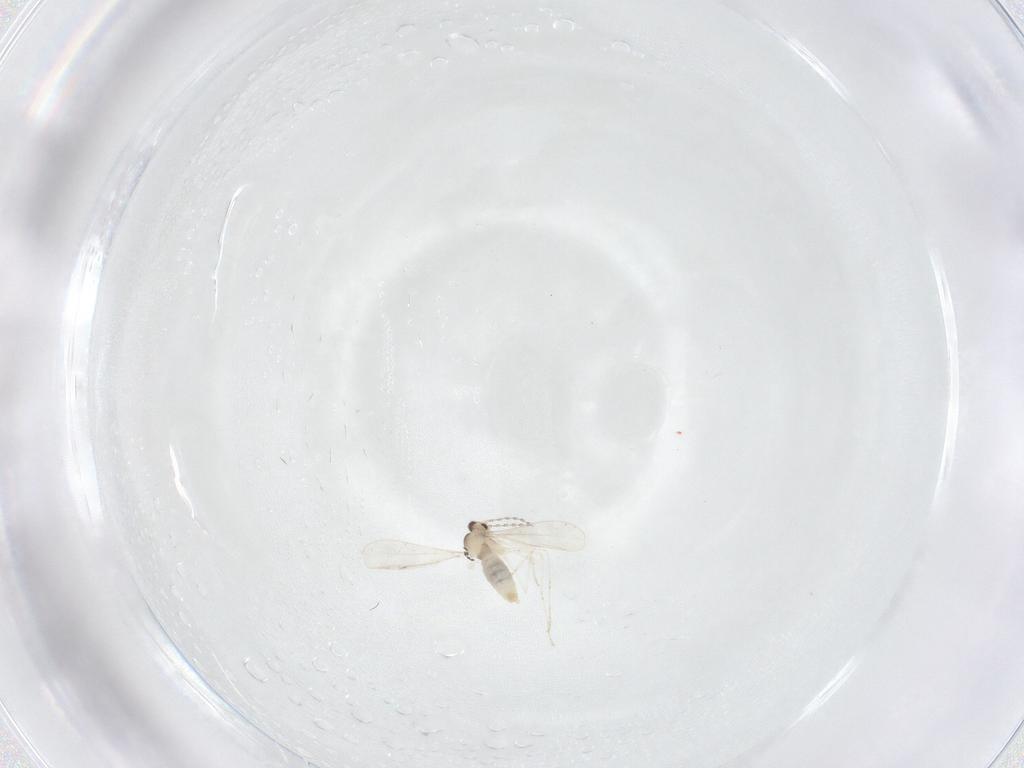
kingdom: Animalia
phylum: Arthropoda
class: Insecta
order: Diptera
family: Cecidomyiidae
